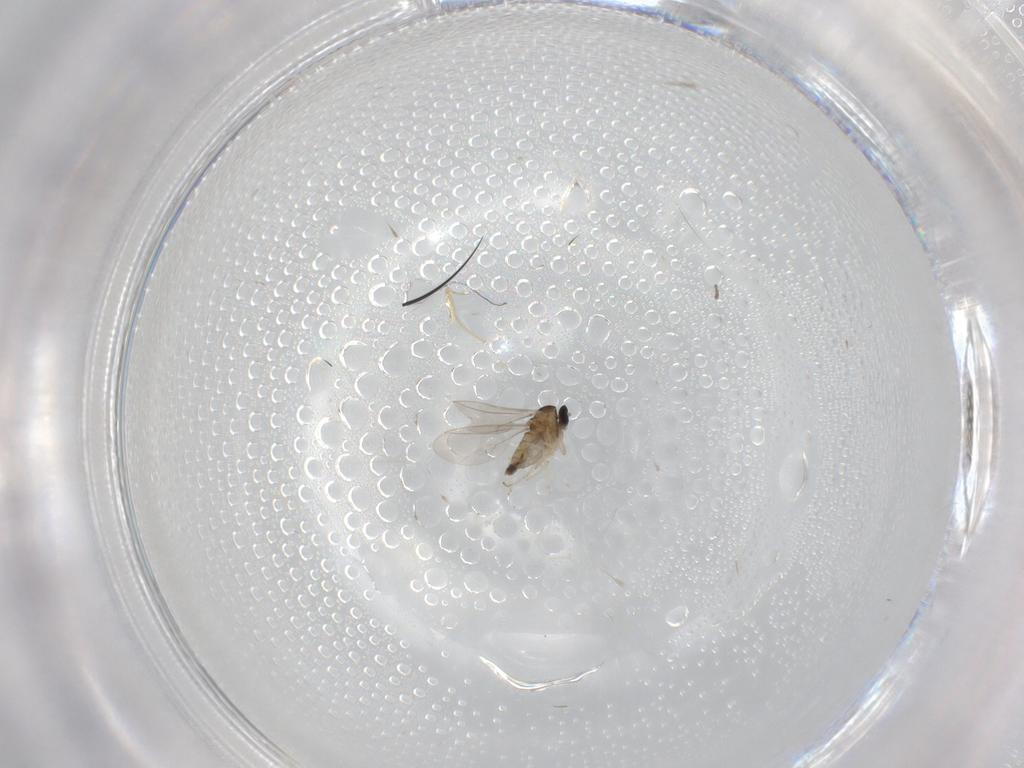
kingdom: Animalia
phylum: Arthropoda
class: Insecta
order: Diptera
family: Cecidomyiidae
